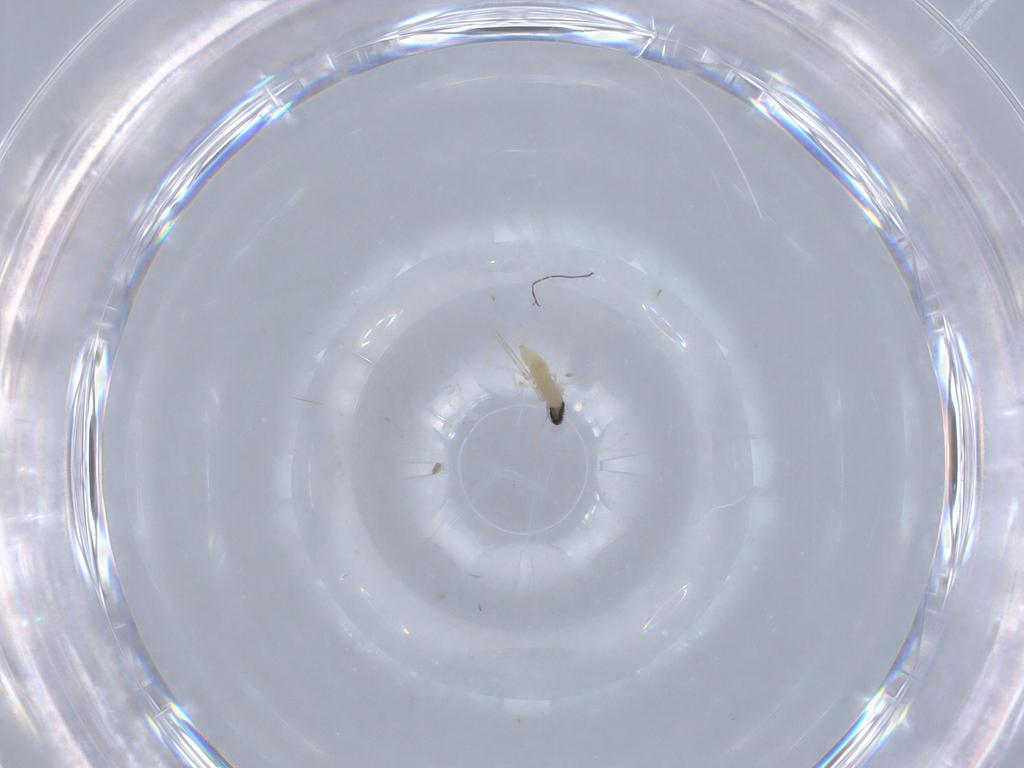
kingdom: Animalia
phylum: Arthropoda
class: Insecta
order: Diptera
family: Cecidomyiidae
